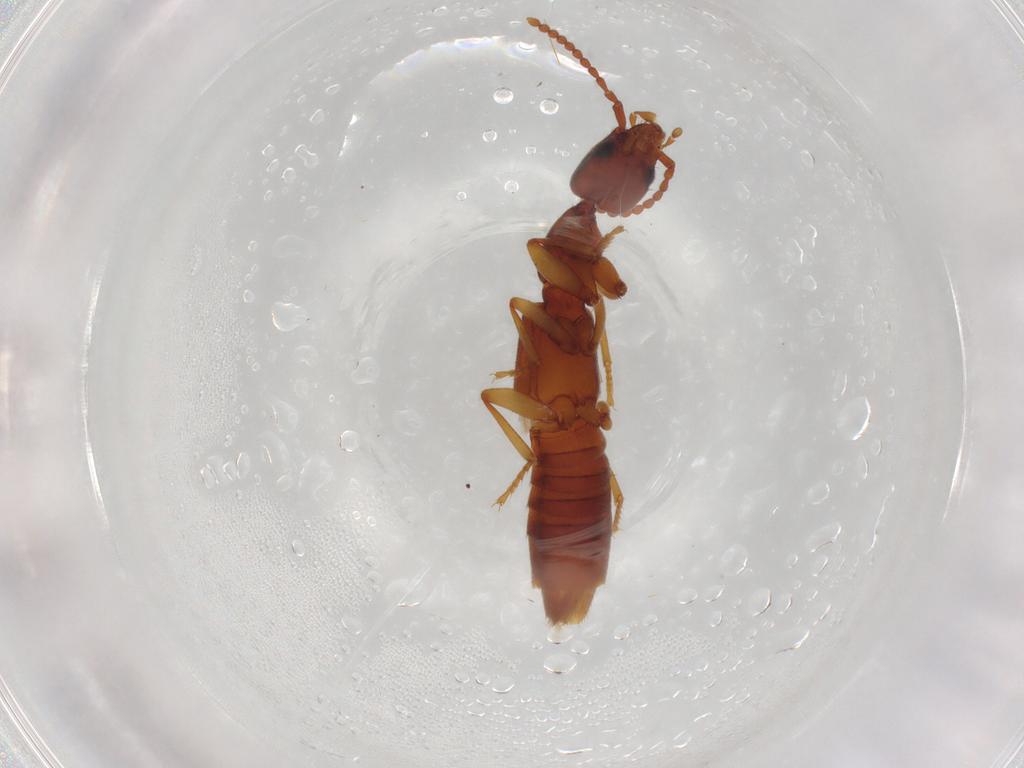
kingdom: Animalia
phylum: Arthropoda
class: Insecta
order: Coleoptera
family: Staphylinidae
